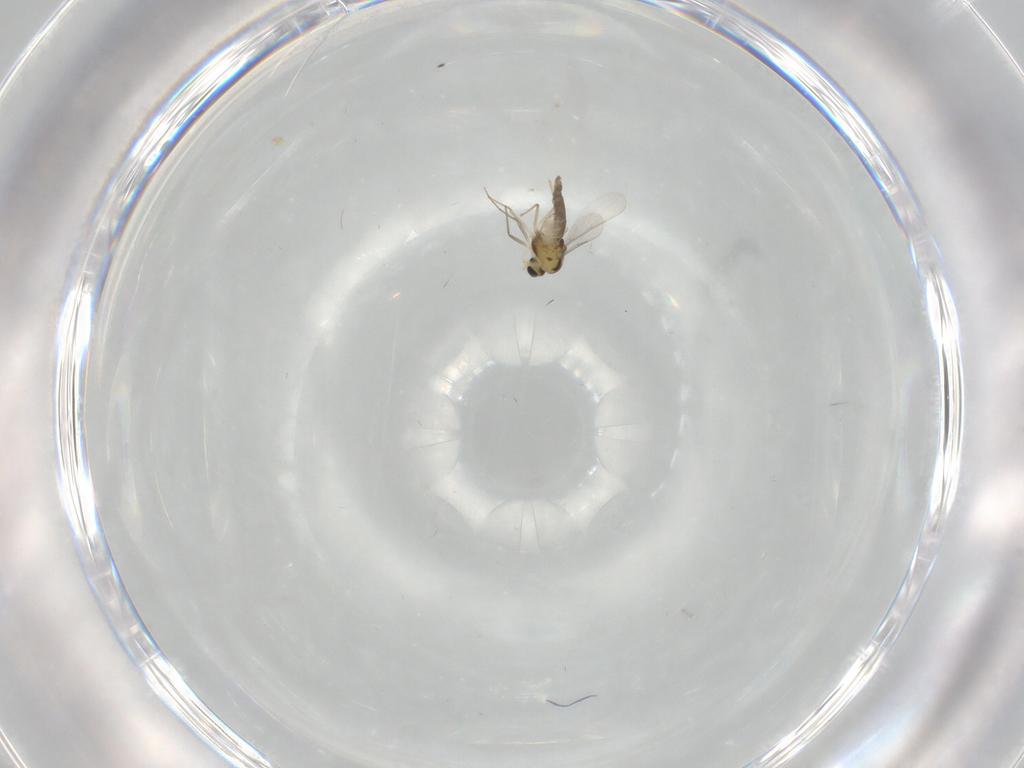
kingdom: Animalia
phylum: Arthropoda
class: Insecta
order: Diptera
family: Chironomidae
